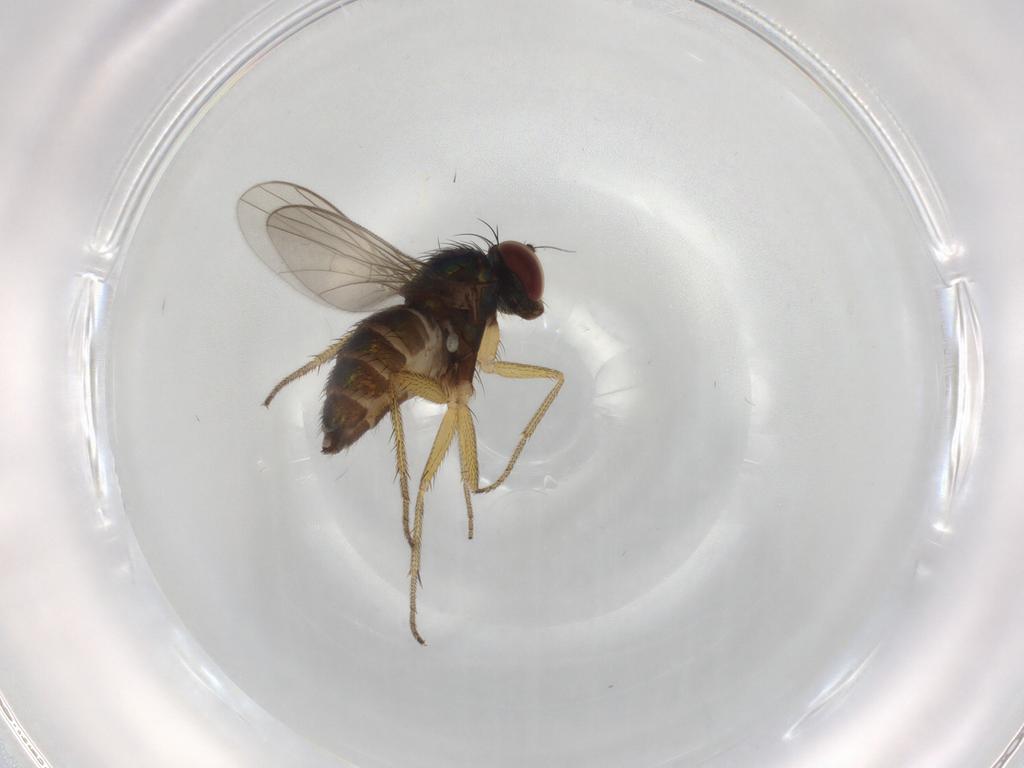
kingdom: Animalia
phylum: Arthropoda
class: Insecta
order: Diptera
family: Dolichopodidae
